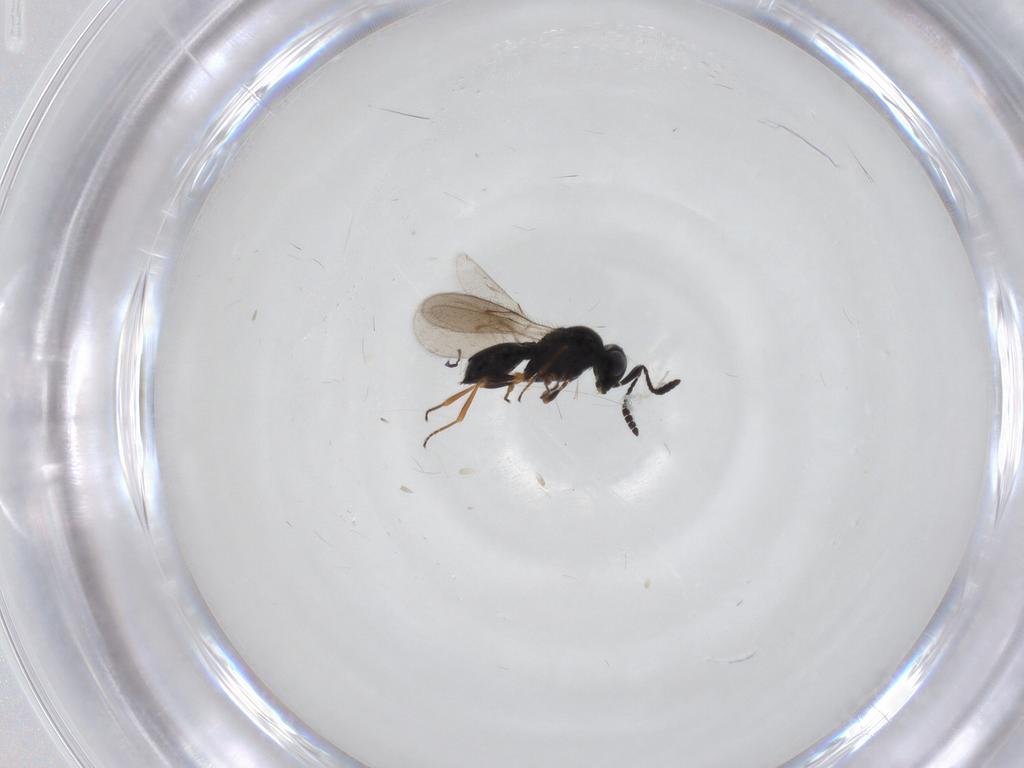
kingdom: Animalia
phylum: Arthropoda
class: Insecta
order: Hymenoptera
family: Scelionidae
